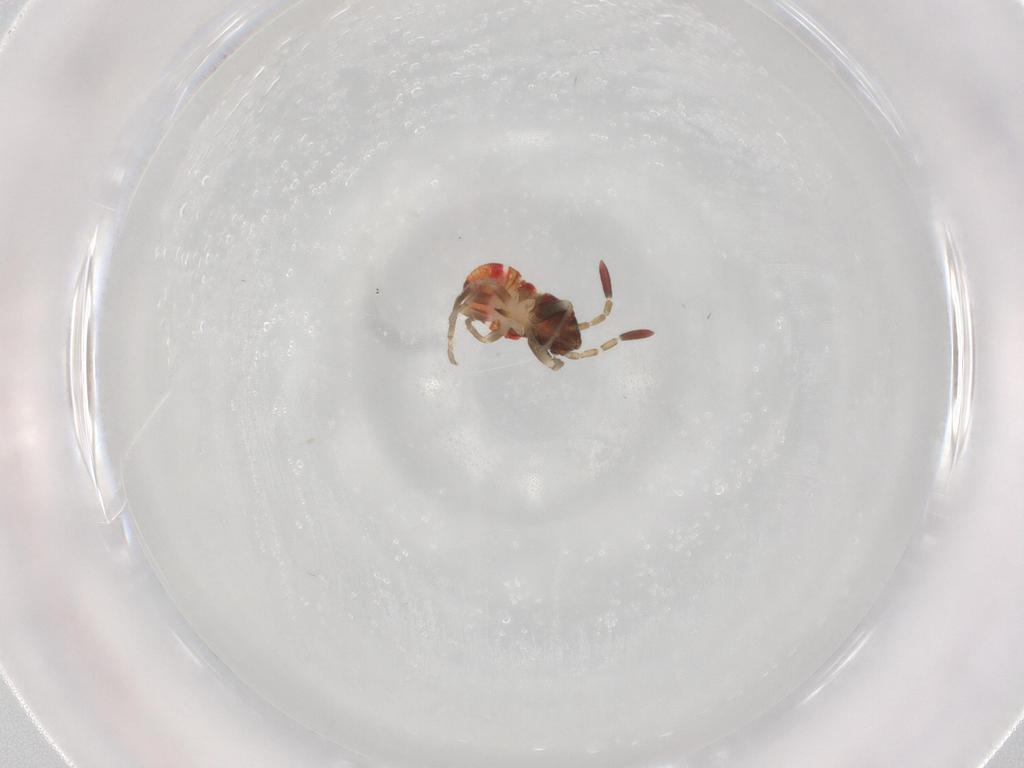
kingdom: Animalia
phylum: Arthropoda
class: Insecta
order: Hemiptera
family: Rhyparochromidae
